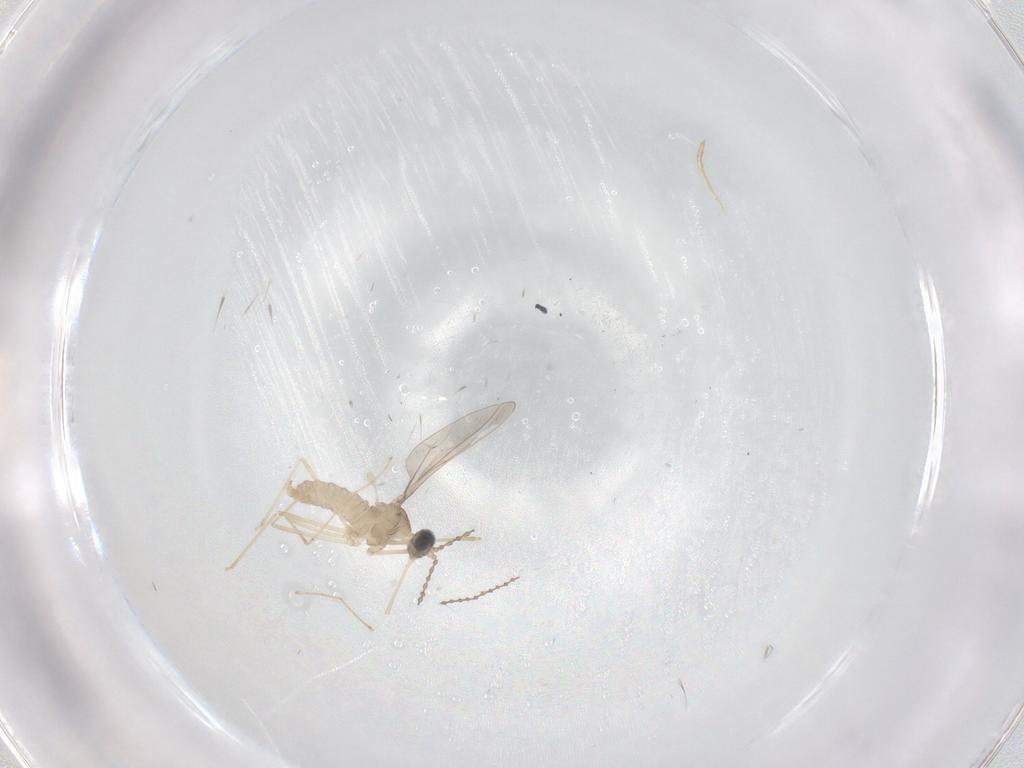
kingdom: Animalia
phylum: Arthropoda
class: Insecta
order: Diptera
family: Cecidomyiidae
